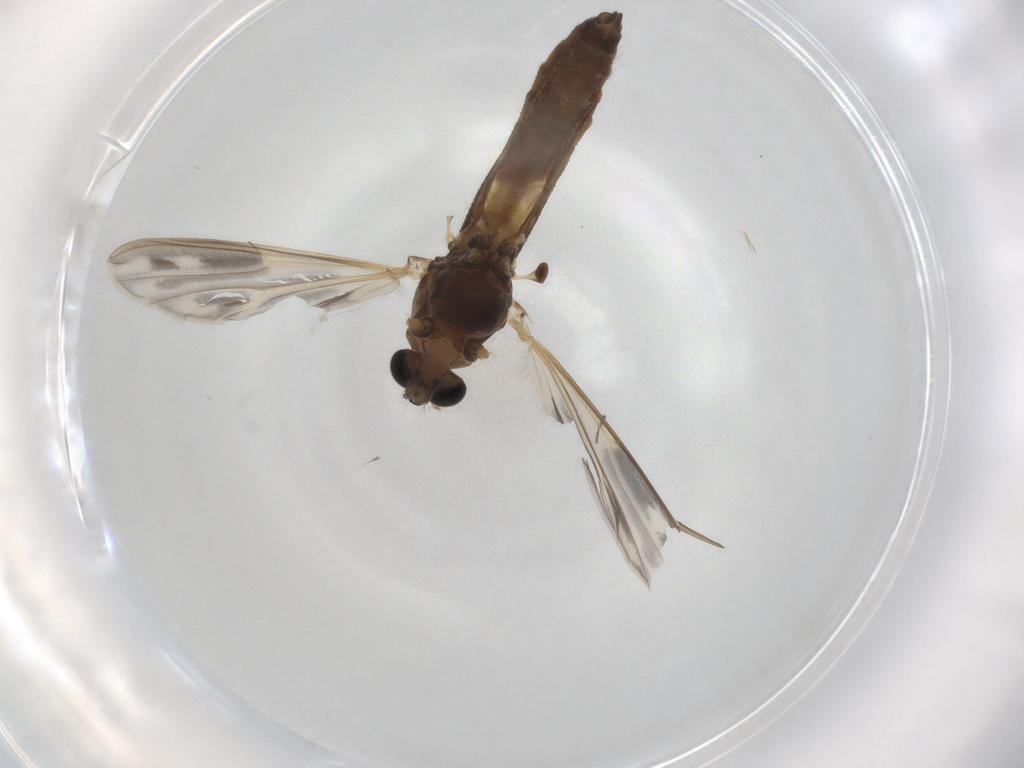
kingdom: Animalia
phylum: Arthropoda
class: Insecta
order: Diptera
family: Chironomidae
